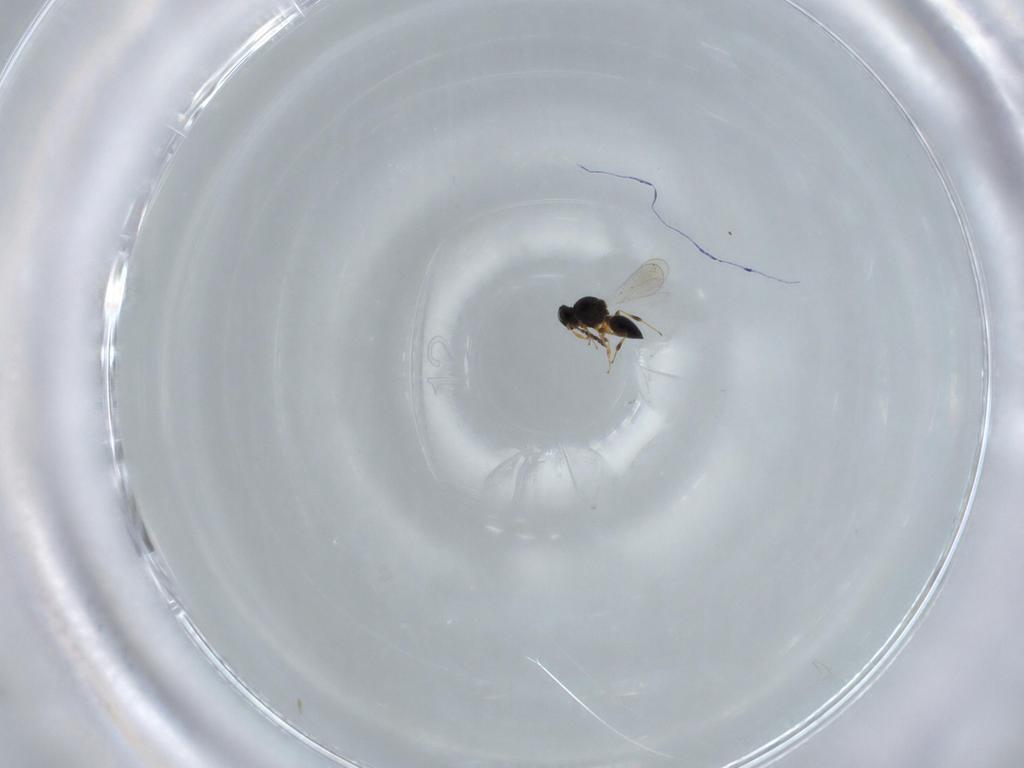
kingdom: Animalia
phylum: Arthropoda
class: Insecta
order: Hymenoptera
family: Platygastridae
